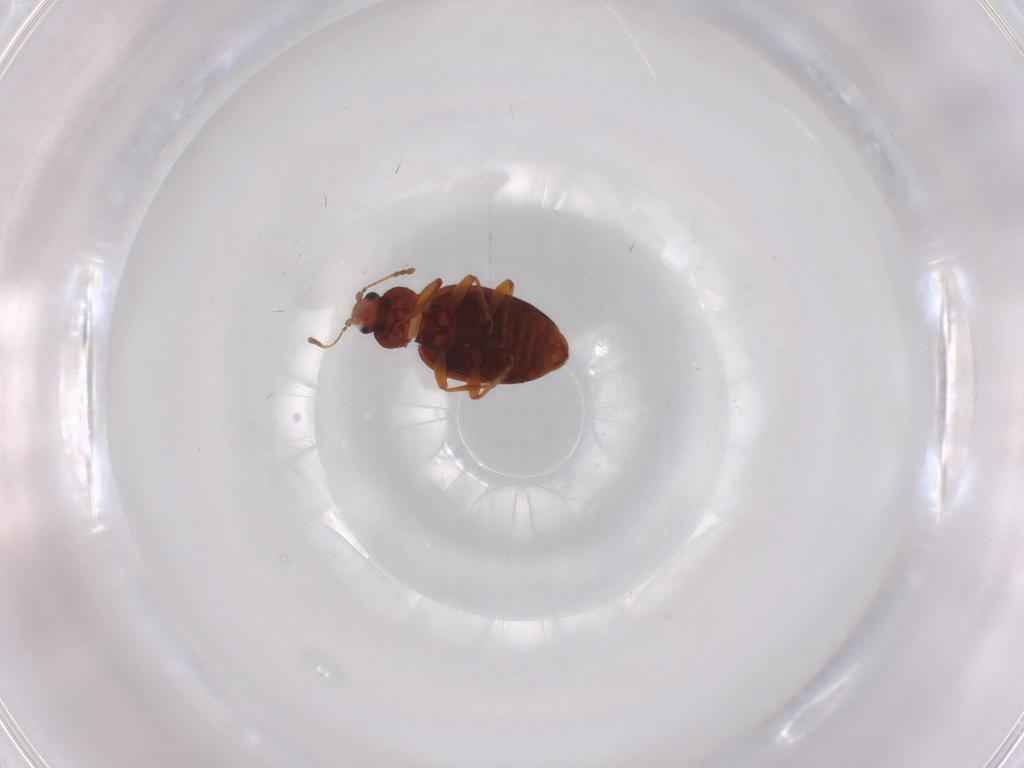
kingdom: Animalia
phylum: Arthropoda
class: Insecta
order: Coleoptera
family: Latridiidae
